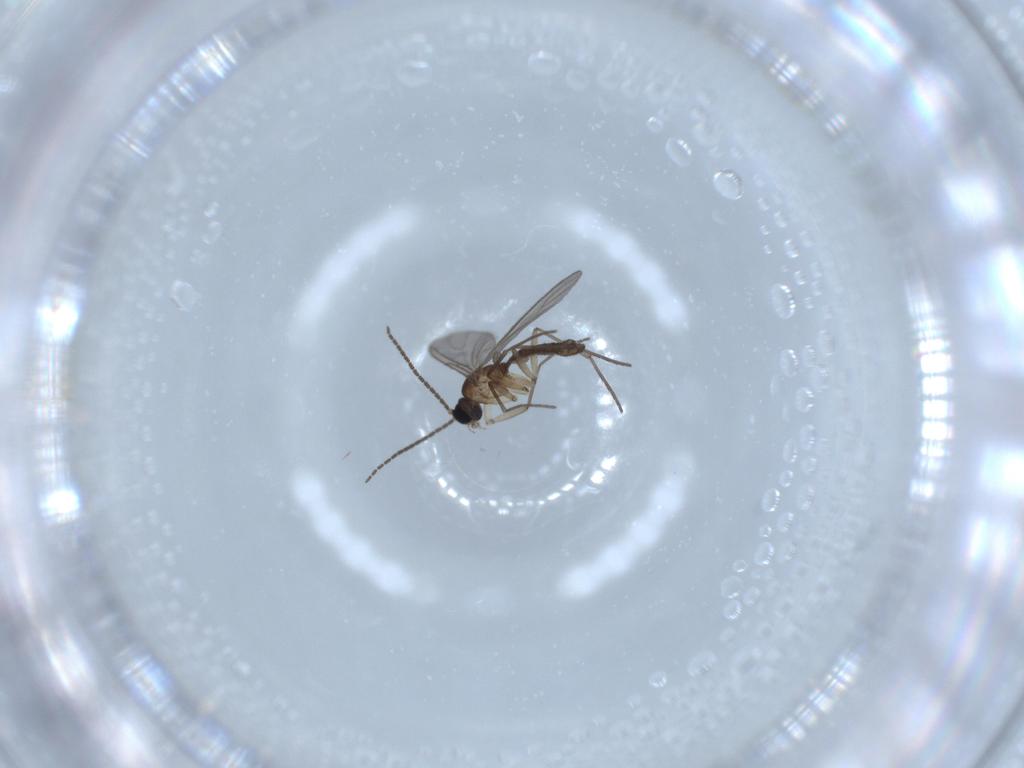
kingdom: Animalia
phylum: Arthropoda
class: Insecta
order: Diptera
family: Sciaridae
